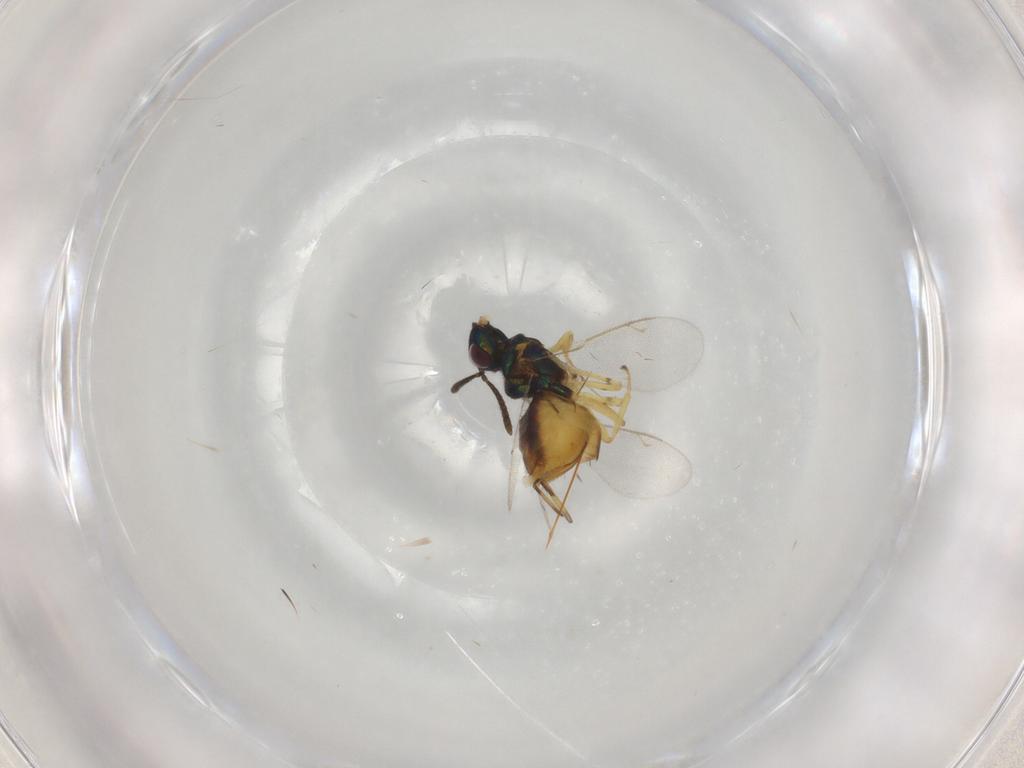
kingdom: Animalia
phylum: Arthropoda
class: Insecta
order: Hymenoptera
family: Eupelmidae
